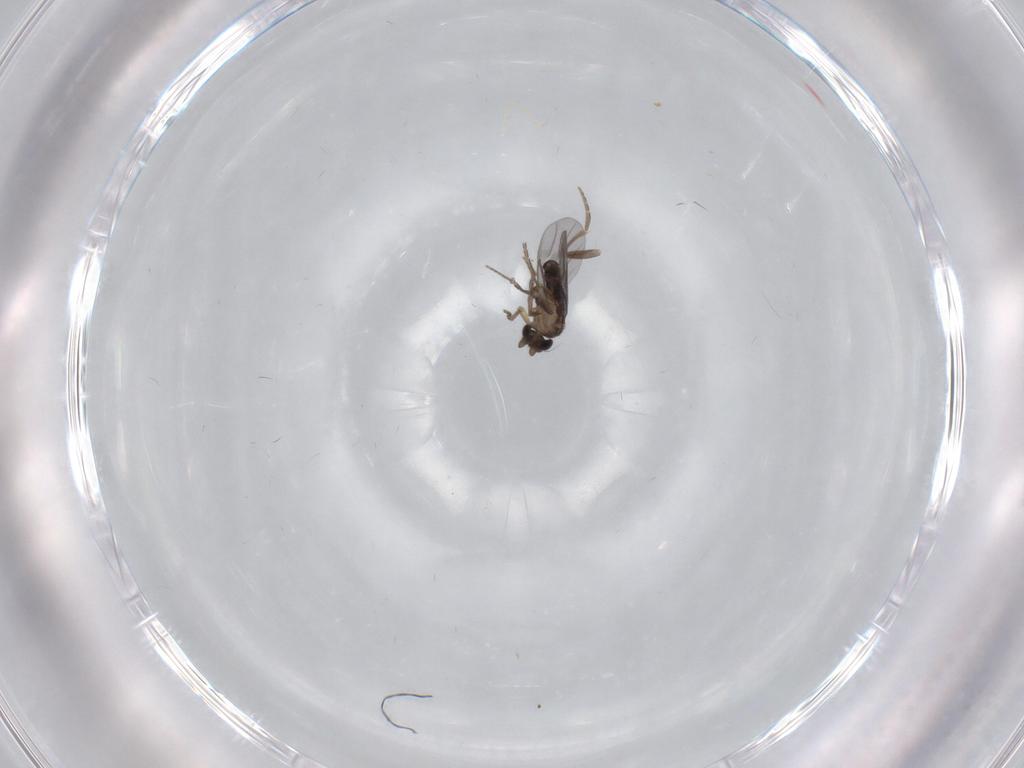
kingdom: Animalia
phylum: Arthropoda
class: Insecta
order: Diptera
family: Cecidomyiidae
